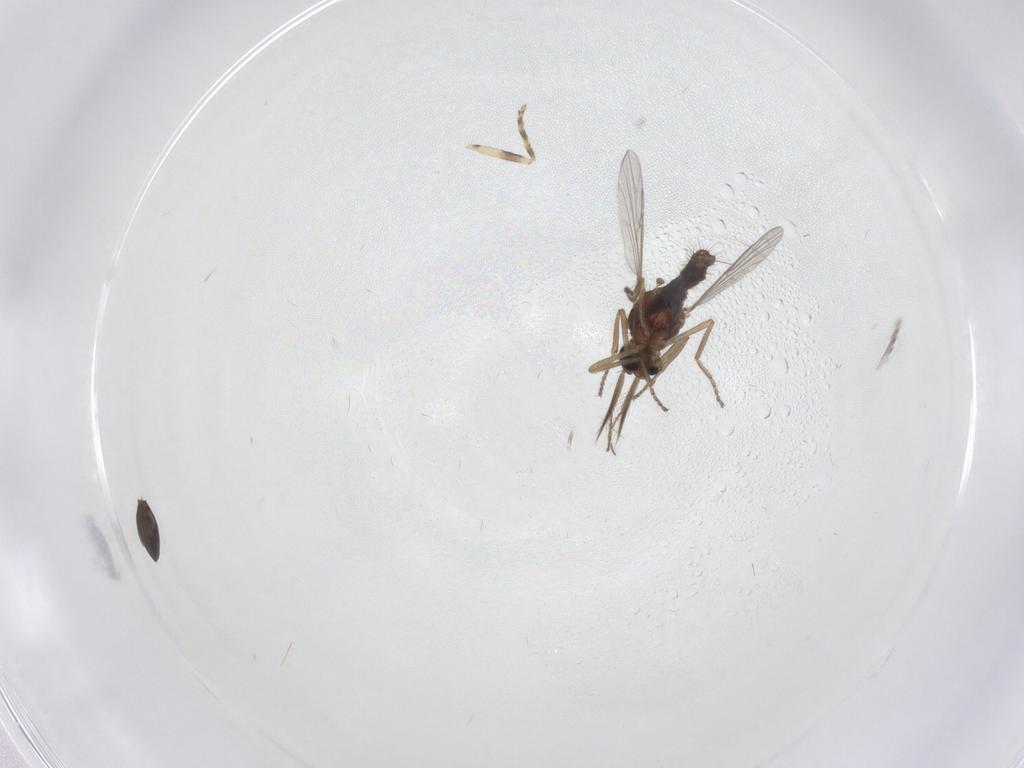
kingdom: Animalia
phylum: Arthropoda
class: Insecta
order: Diptera
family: Ceratopogonidae
